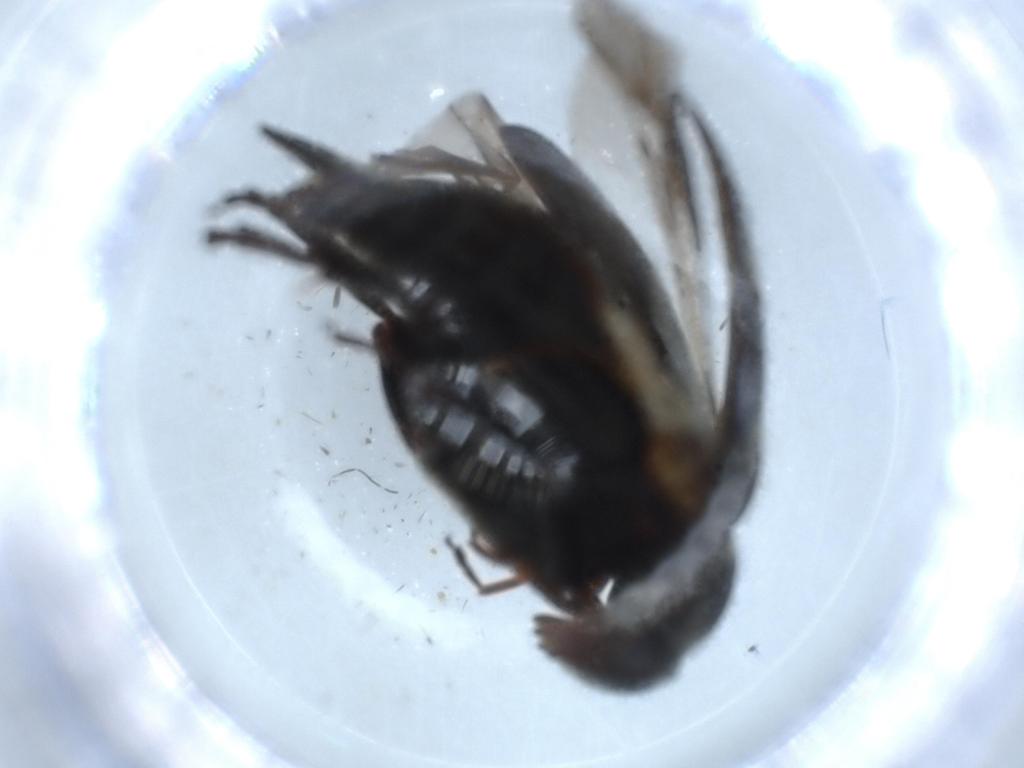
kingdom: Animalia
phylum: Arthropoda
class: Insecta
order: Coleoptera
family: Mordellidae
